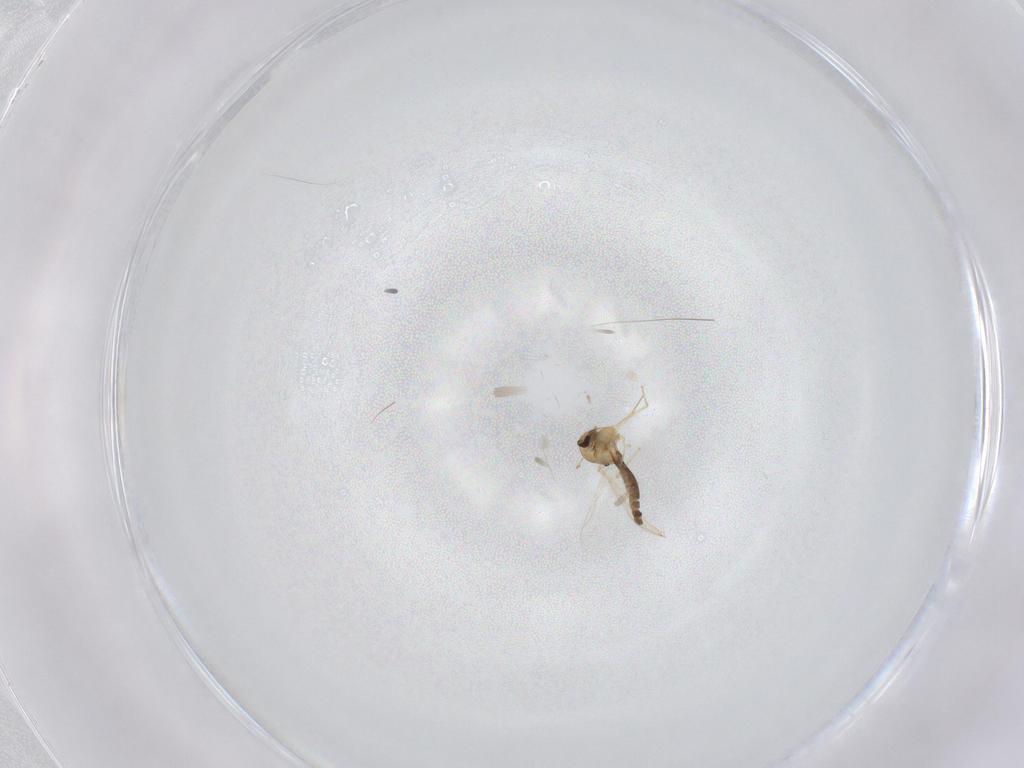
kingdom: Animalia
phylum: Arthropoda
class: Insecta
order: Diptera
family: Chironomidae
